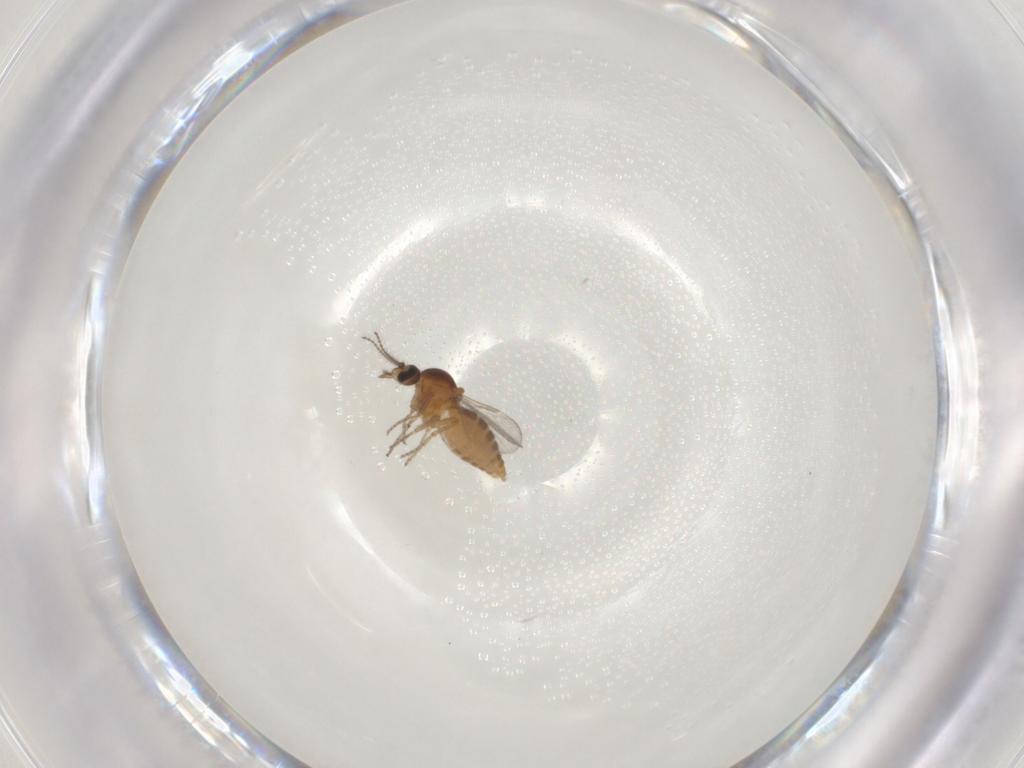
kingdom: Animalia
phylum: Arthropoda
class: Insecta
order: Diptera
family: Ceratopogonidae
